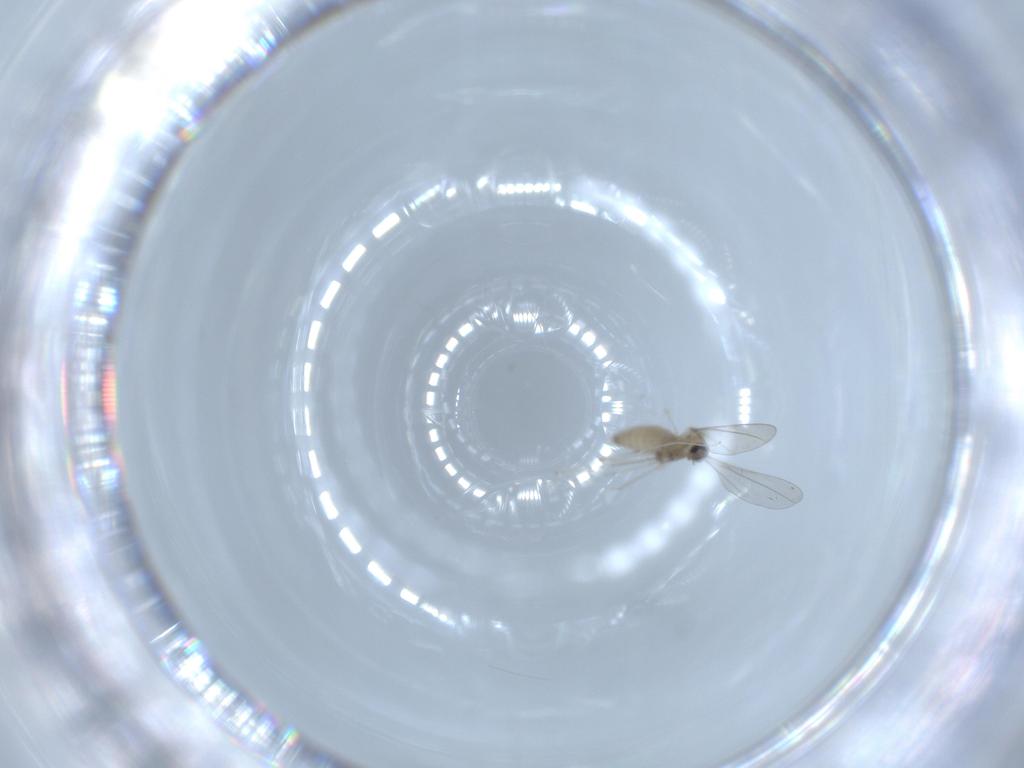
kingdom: Animalia
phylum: Arthropoda
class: Insecta
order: Diptera
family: Cecidomyiidae
